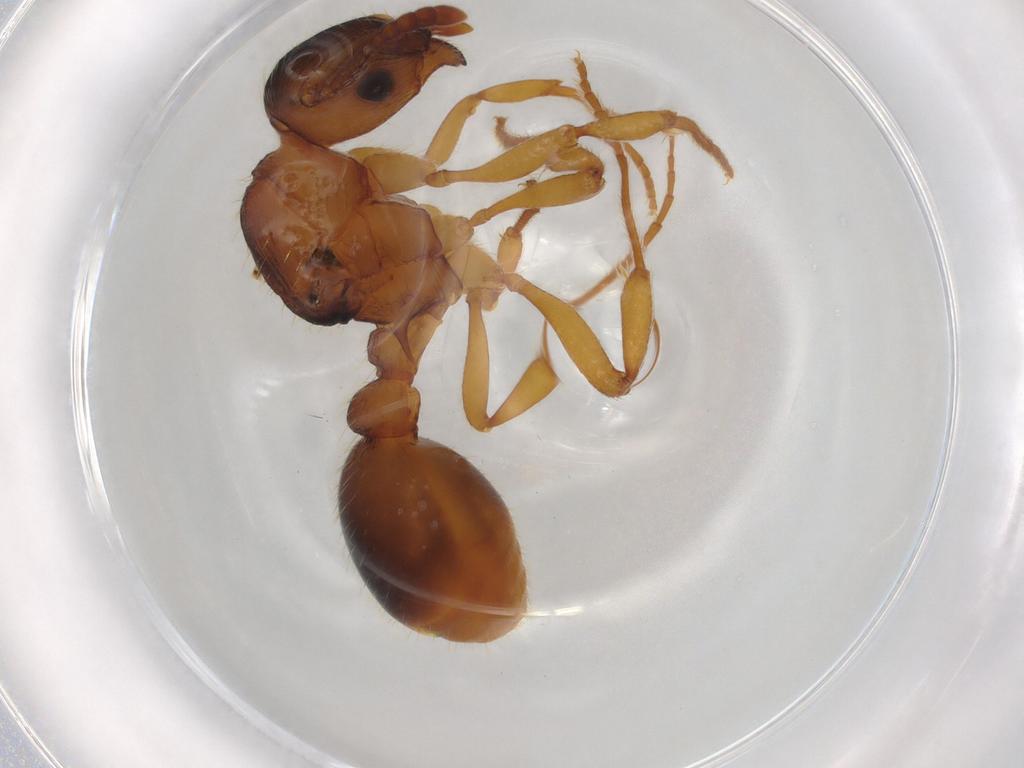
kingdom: Animalia
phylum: Arthropoda
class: Insecta
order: Hymenoptera
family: Formicidae
